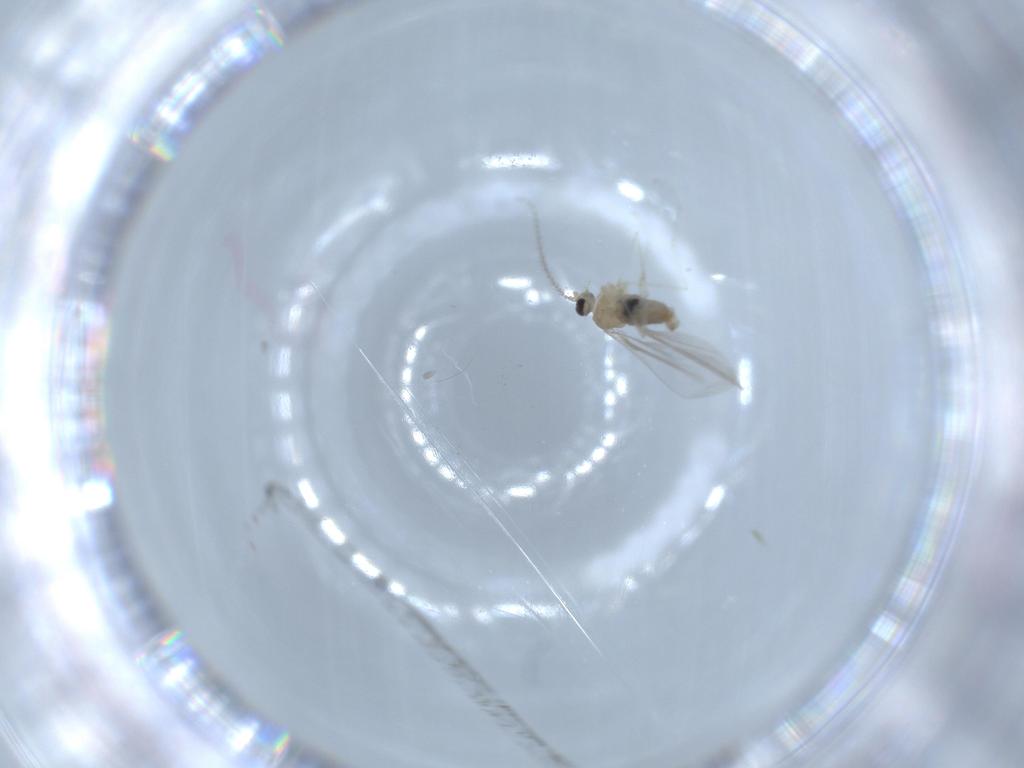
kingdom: Animalia
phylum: Arthropoda
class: Insecta
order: Diptera
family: Cecidomyiidae
